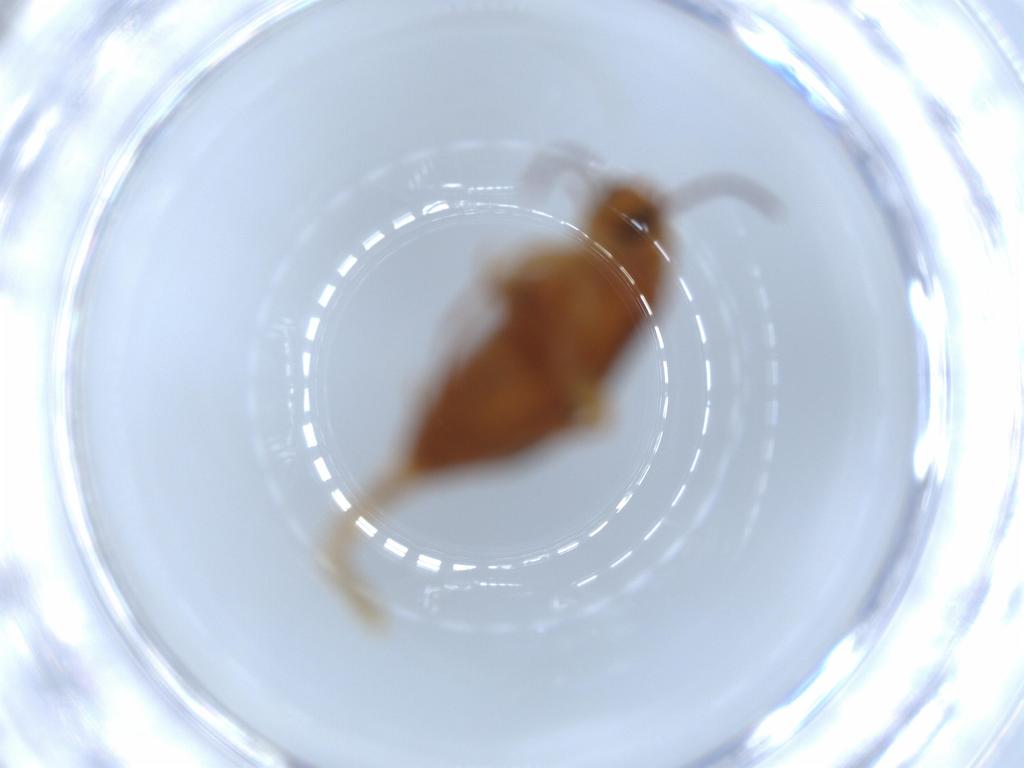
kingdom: Animalia
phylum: Arthropoda
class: Insecta
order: Coleoptera
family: Scraptiidae
